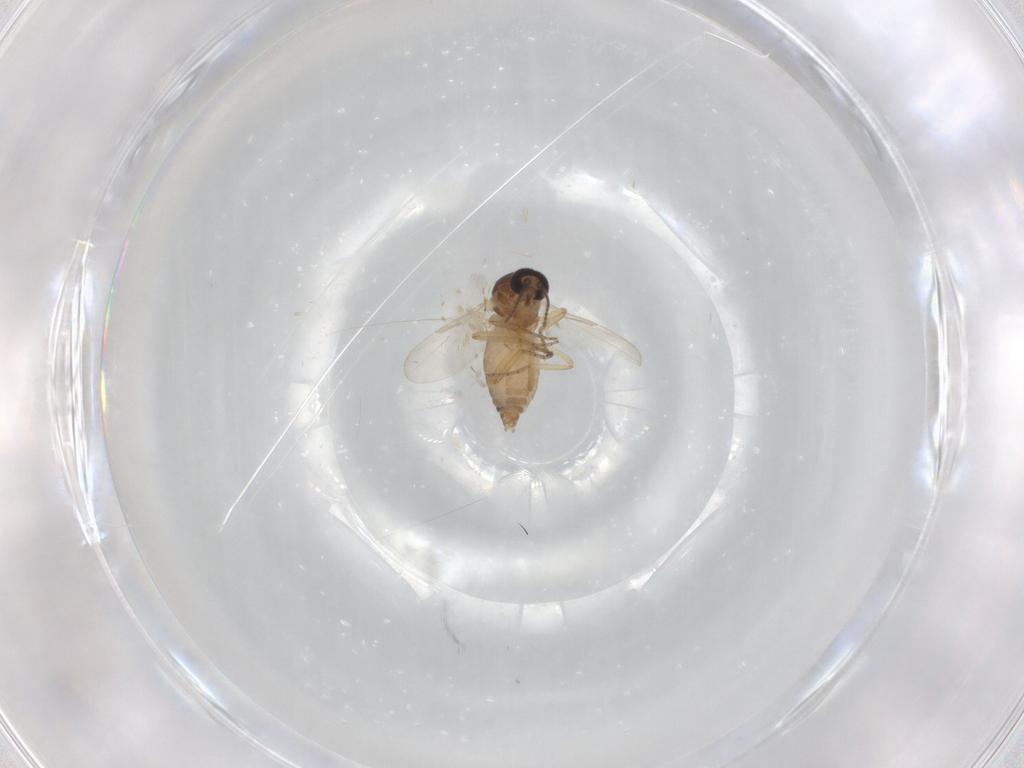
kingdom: Animalia
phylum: Arthropoda
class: Insecta
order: Diptera
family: Ceratopogonidae
